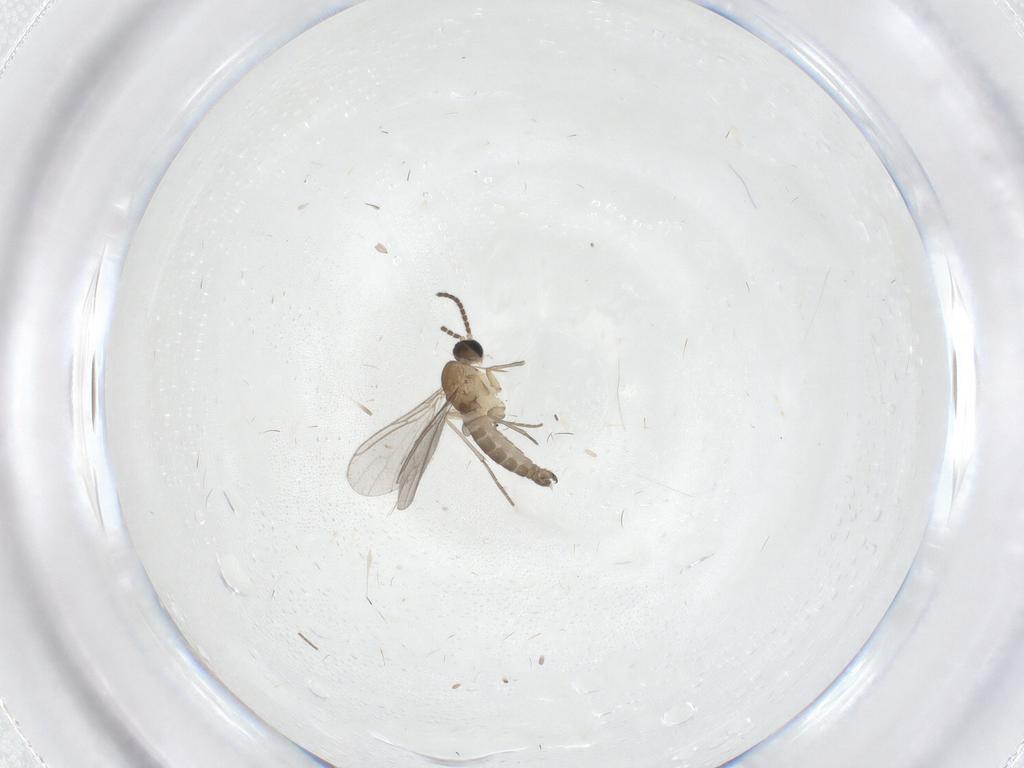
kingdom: Animalia
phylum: Arthropoda
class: Insecta
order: Diptera
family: Sciaridae
